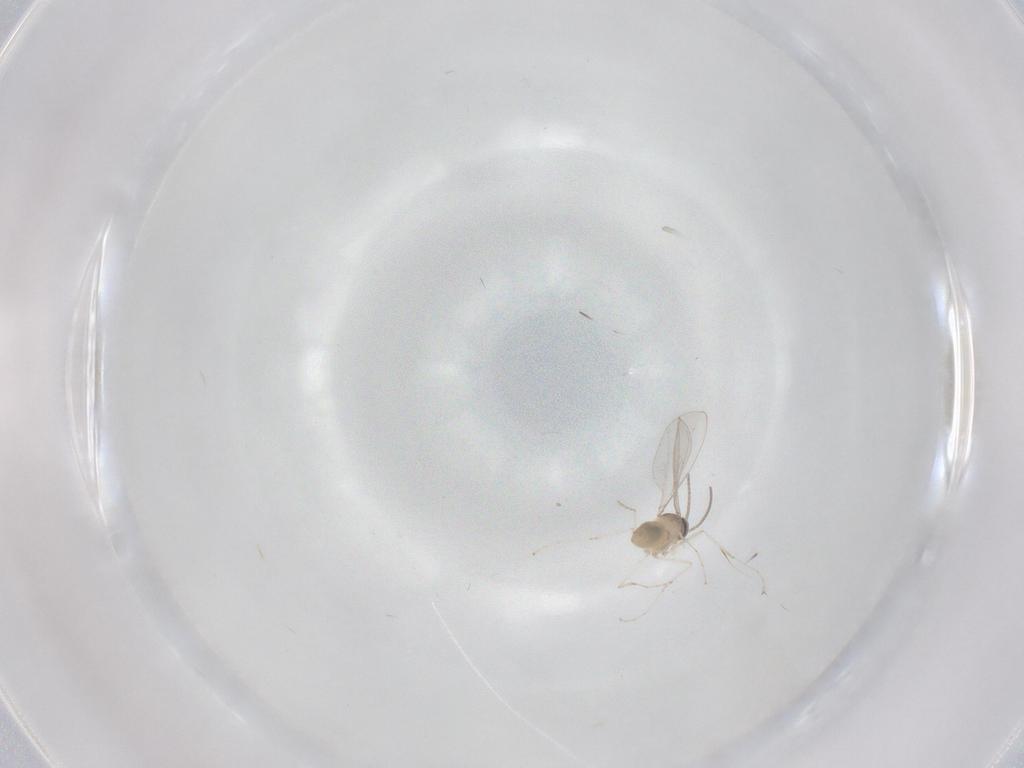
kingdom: Animalia
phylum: Arthropoda
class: Insecta
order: Diptera
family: Cecidomyiidae
